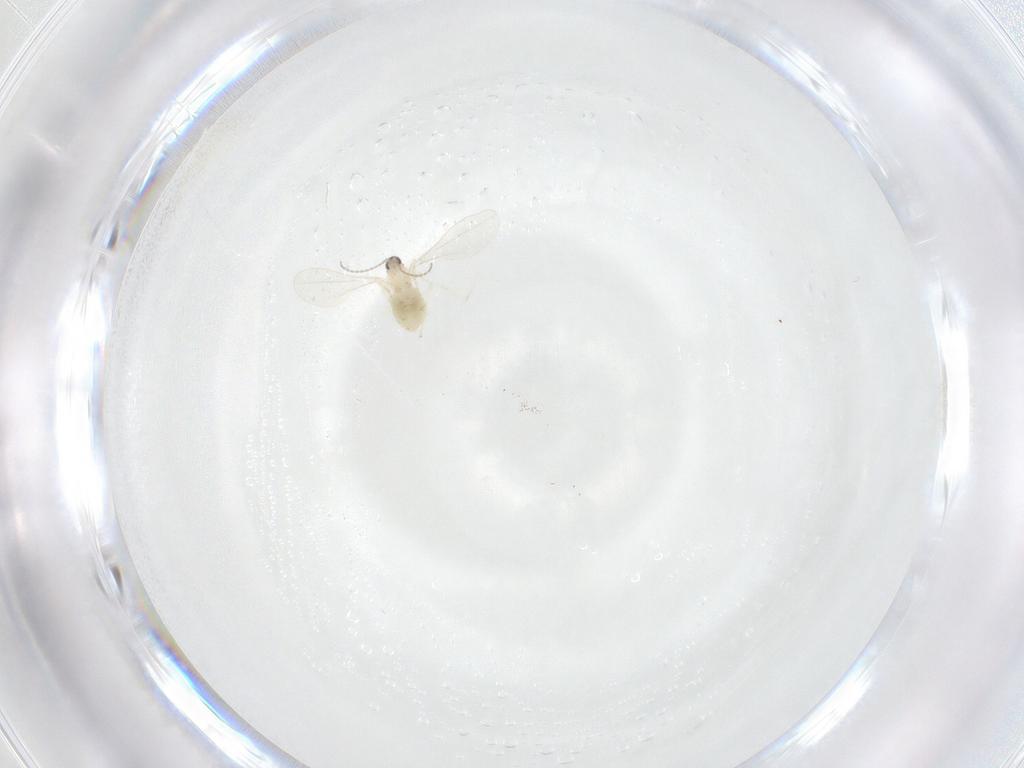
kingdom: Animalia
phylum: Arthropoda
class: Insecta
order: Diptera
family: Cecidomyiidae
